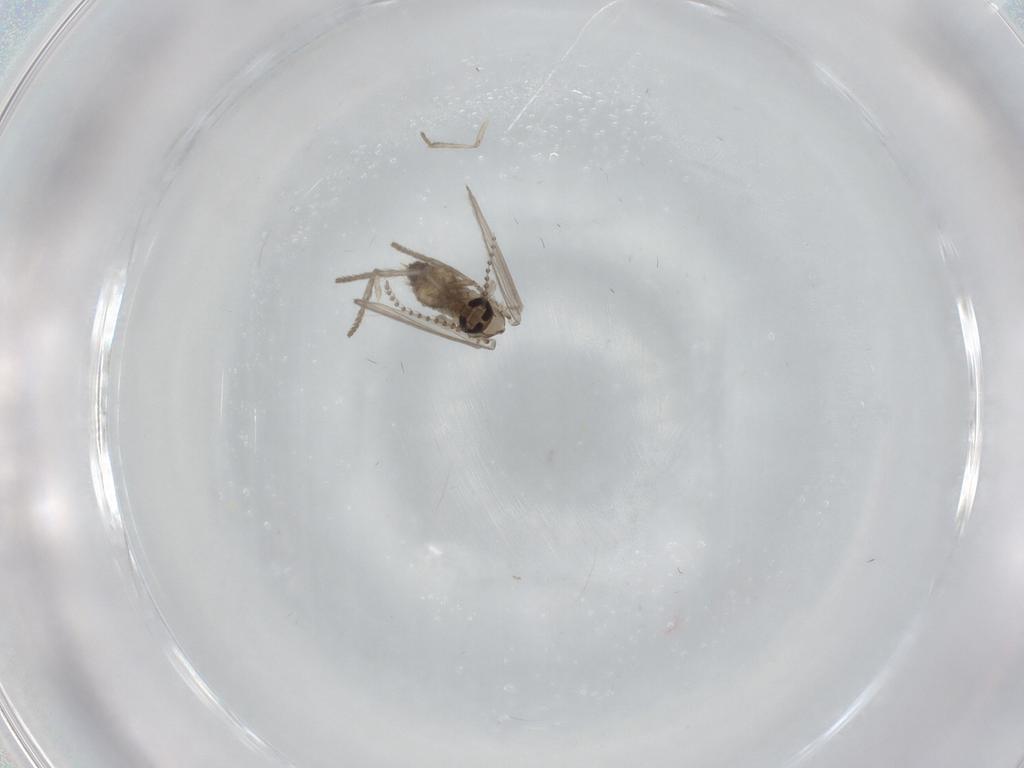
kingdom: Animalia
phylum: Arthropoda
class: Insecta
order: Diptera
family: Psychodidae
